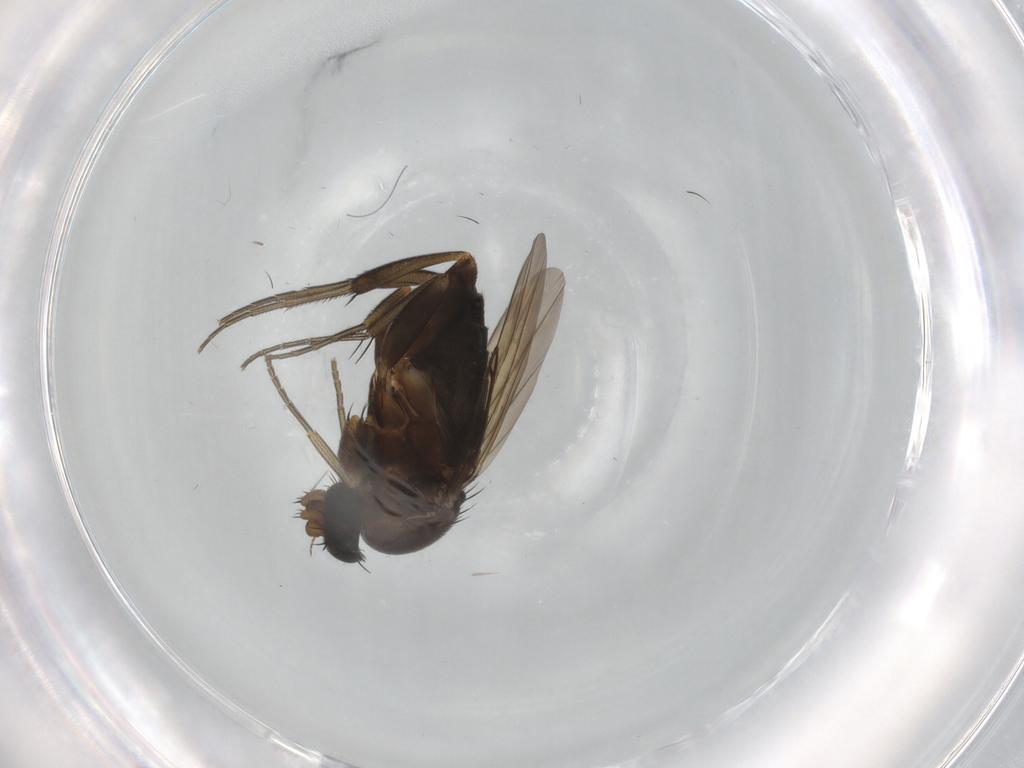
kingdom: Animalia
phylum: Arthropoda
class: Insecta
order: Diptera
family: Phoridae
